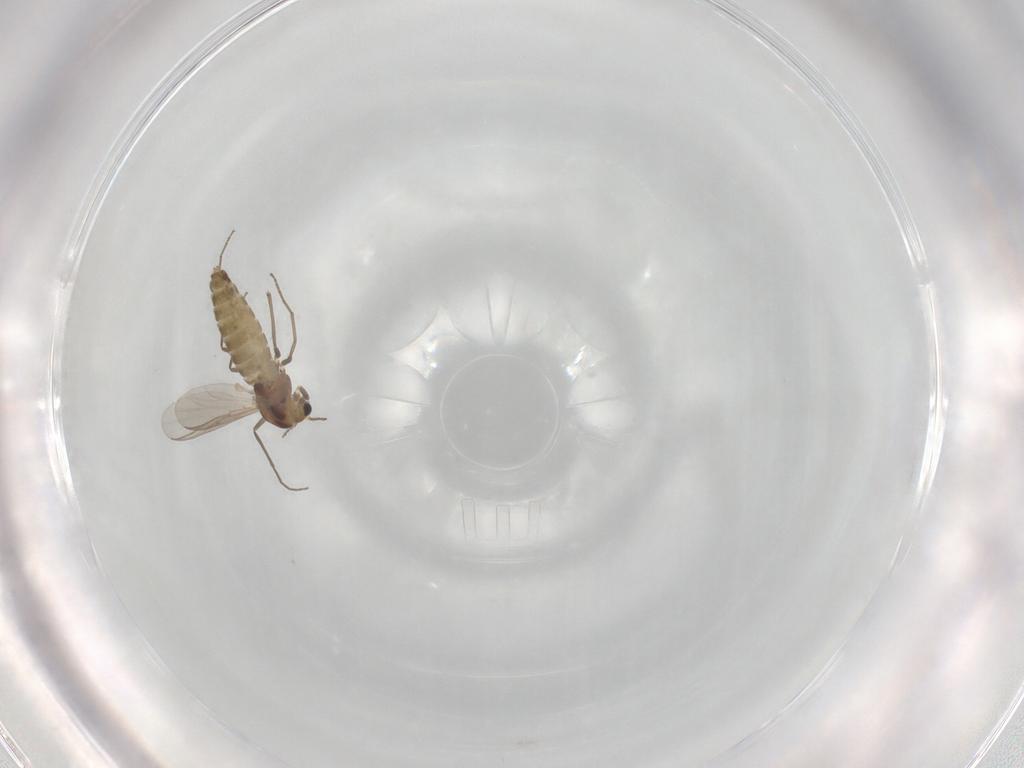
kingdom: Animalia
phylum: Arthropoda
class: Insecta
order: Diptera
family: Chironomidae
